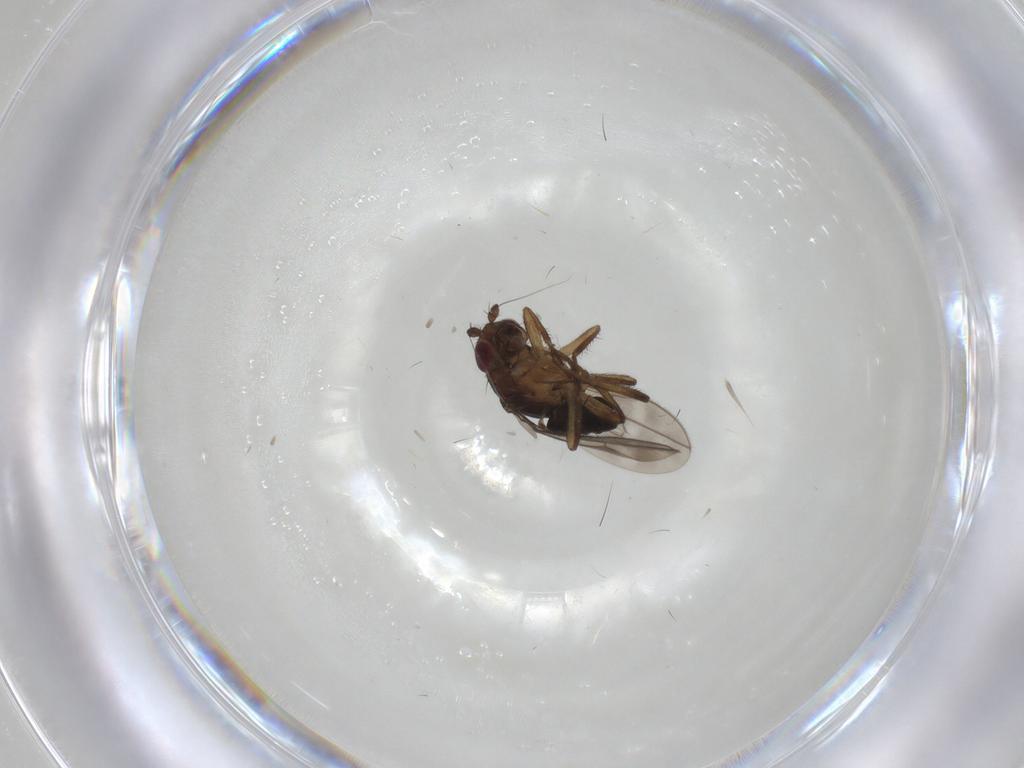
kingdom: Animalia
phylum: Arthropoda
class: Insecta
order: Diptera
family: Sphaeroceridae
